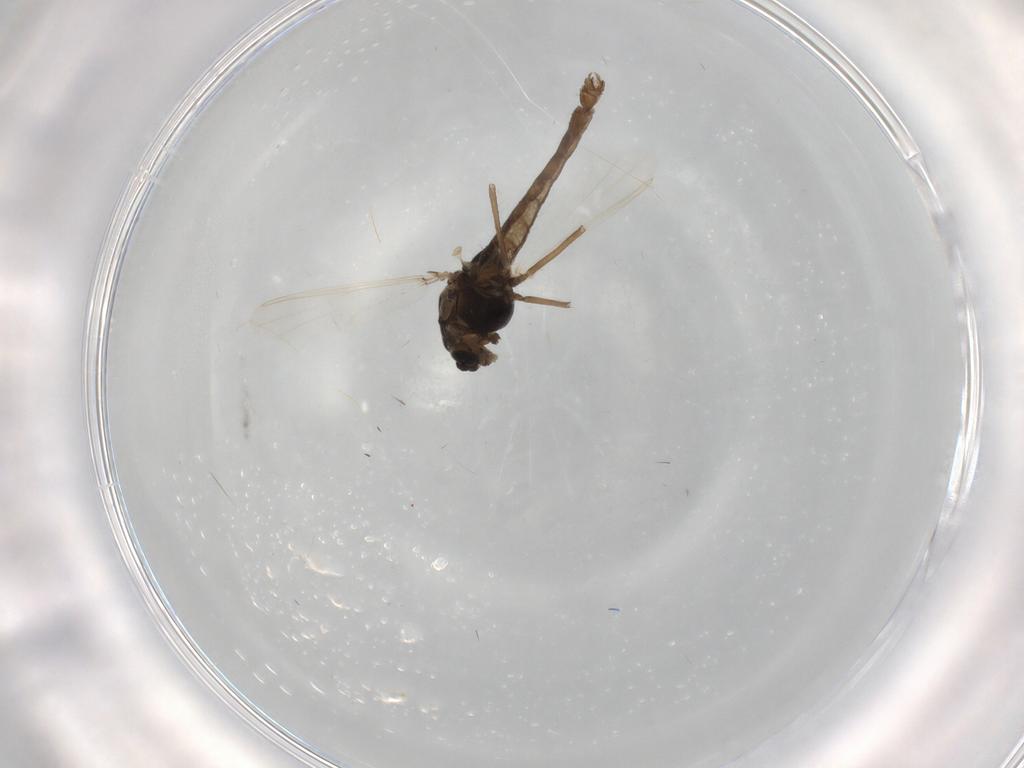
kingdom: Animalia
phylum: Arthropoda
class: Insecta
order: Diptera
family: Chironomidae
